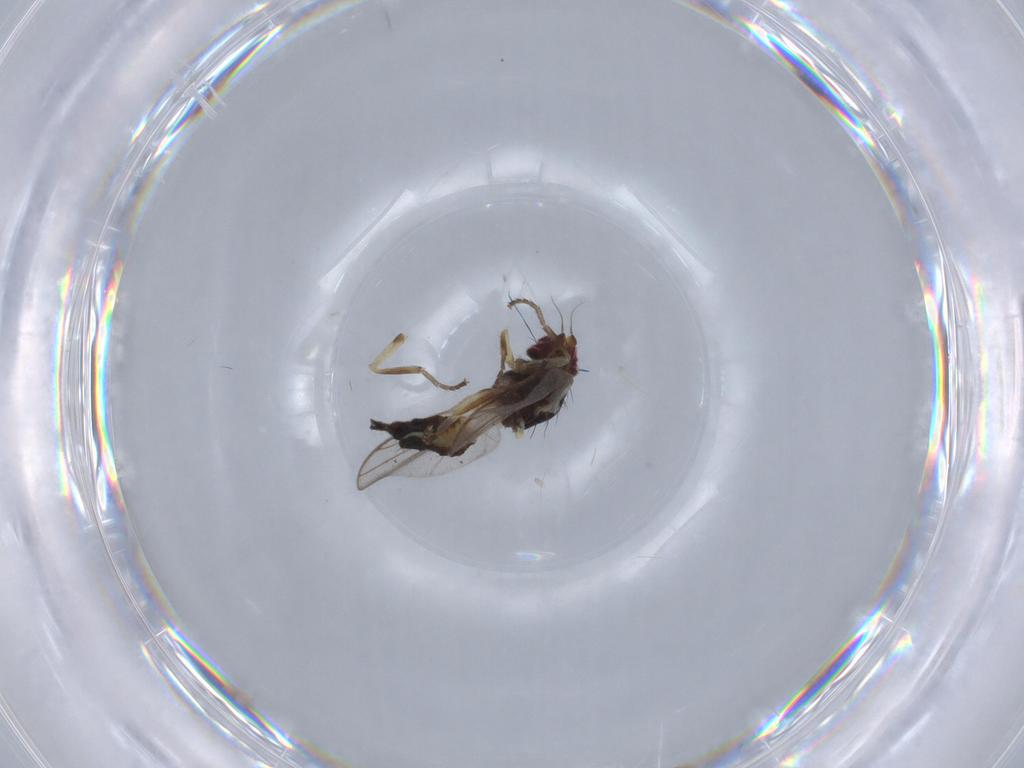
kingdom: Animalia
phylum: Arthropoda
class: Insecta
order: Diptera
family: Agromyzidae
